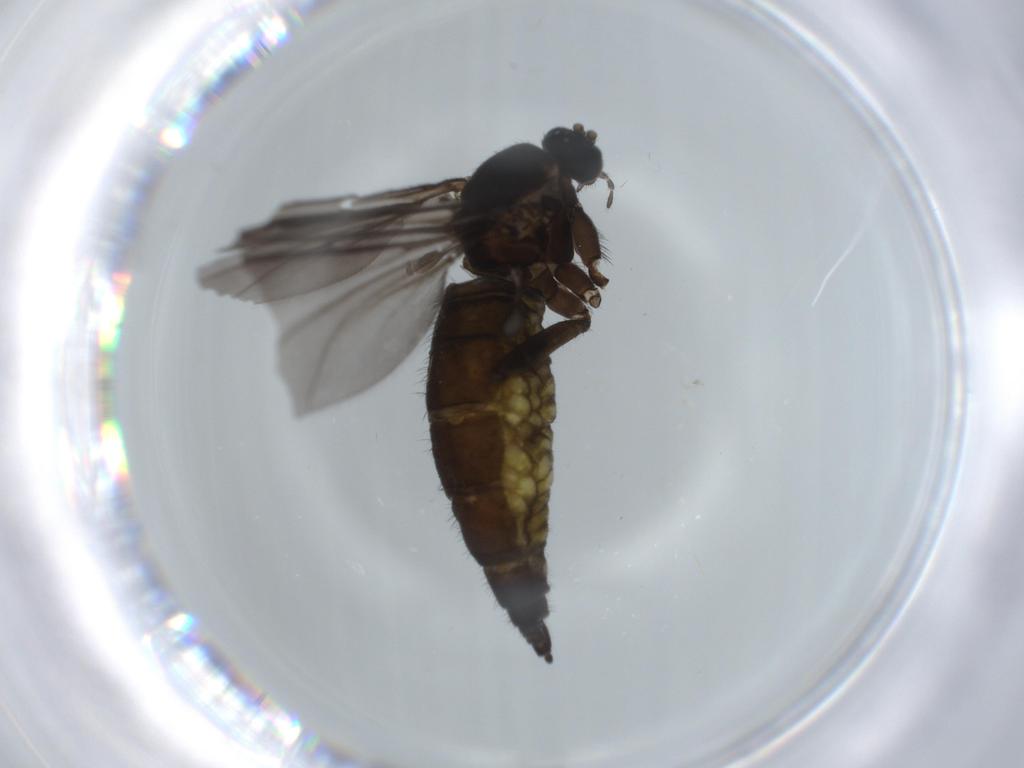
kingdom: Animalia
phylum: Arthropoda
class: Insecta
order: Diptera
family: Sciaridae
